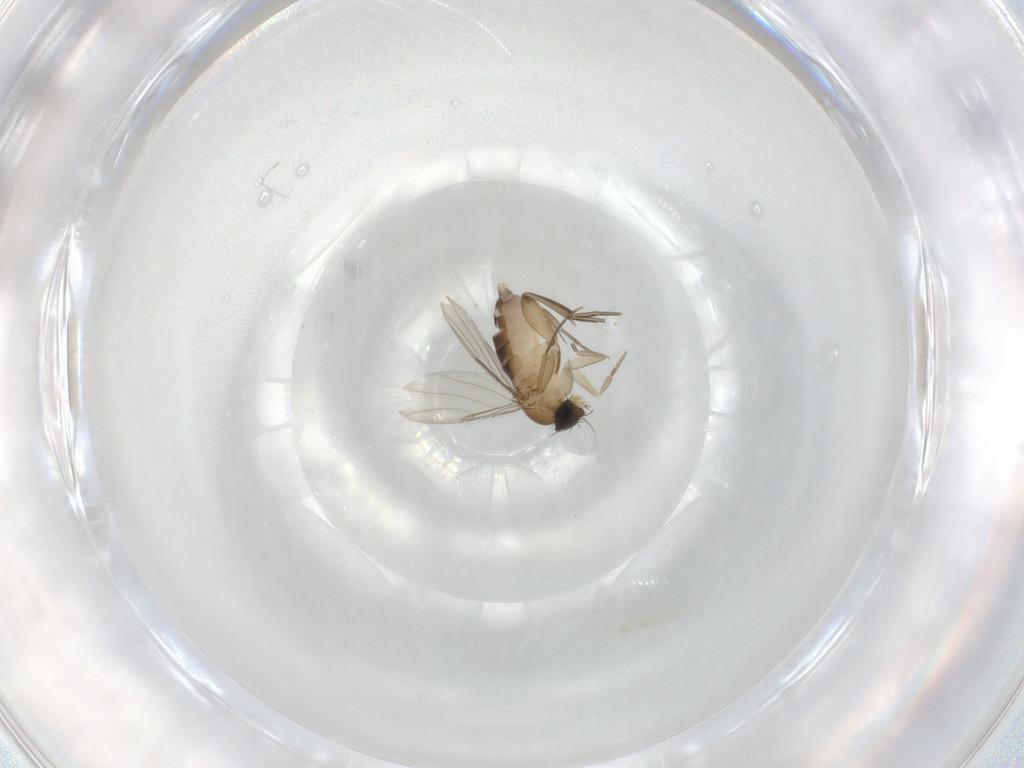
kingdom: Animalia
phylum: Arthropoda
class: Insecta
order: Diptera
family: Phoridae
